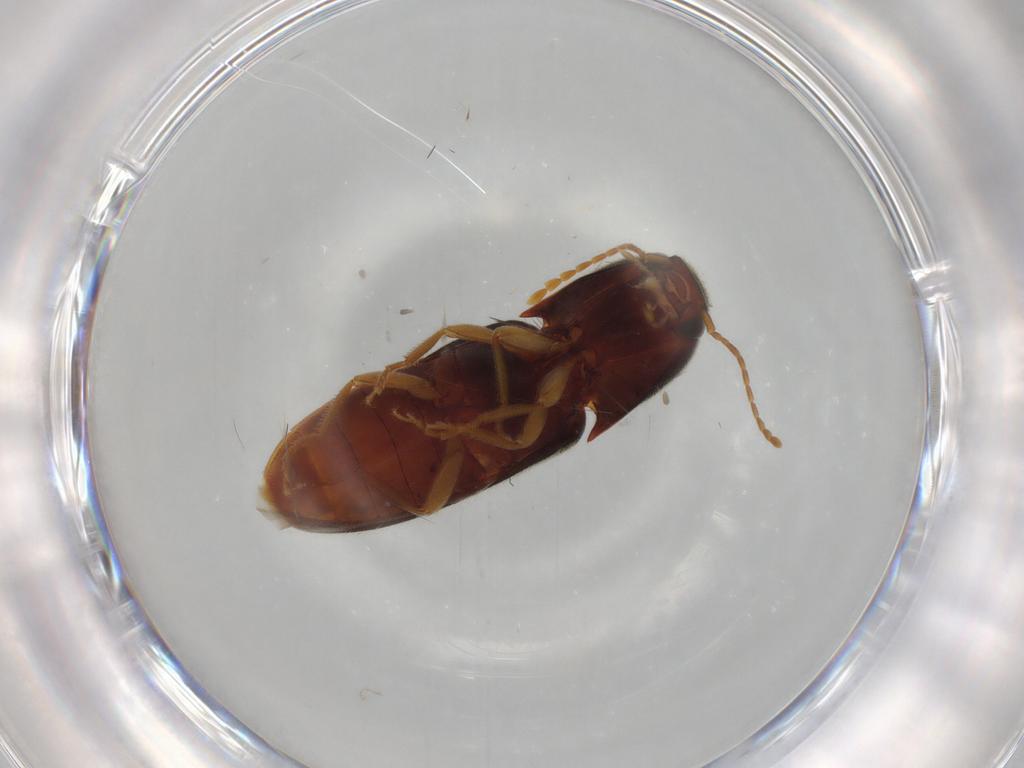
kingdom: Animalia
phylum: Arthropoda
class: Insecta
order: Coleoptera
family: Elateridae
